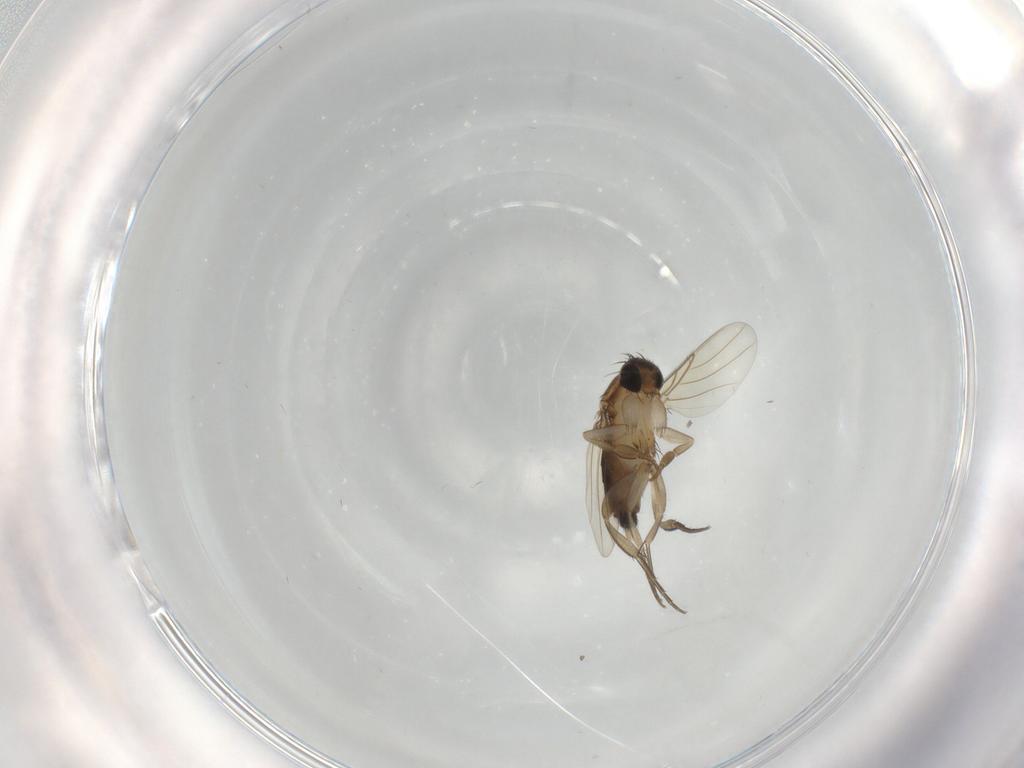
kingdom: Animalia
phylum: Arthropoda
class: Insecta
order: Diptera
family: Phoridae
